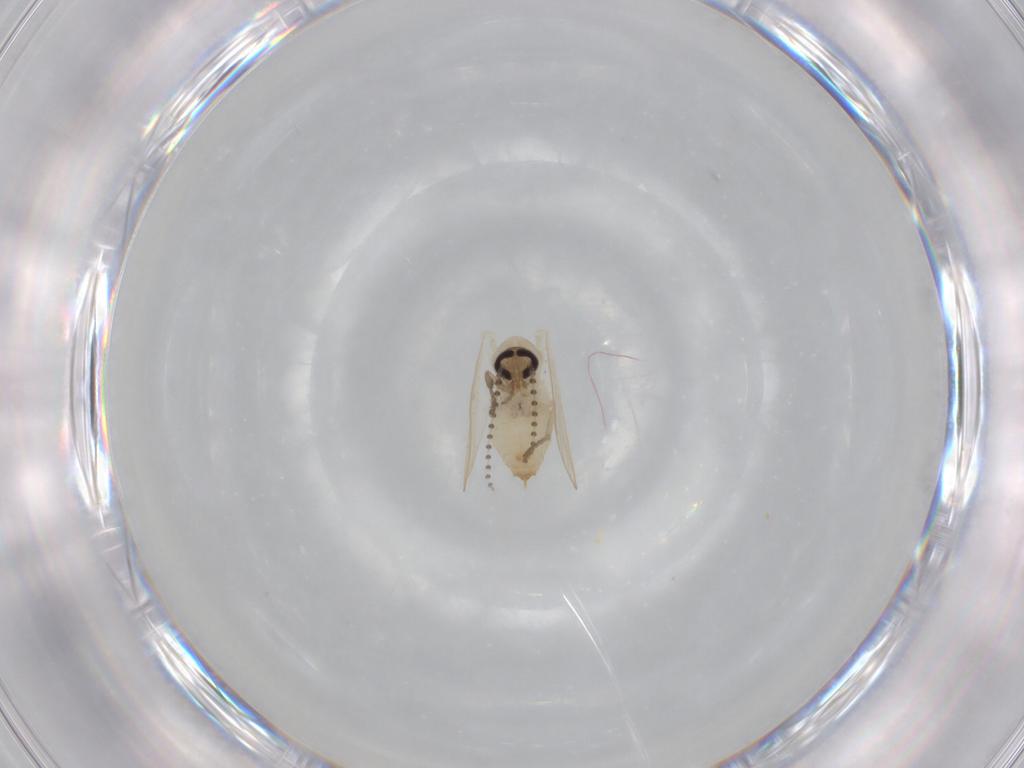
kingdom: Animalia
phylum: Arthropoda
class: Insecta
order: Diptera
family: Psychodidae
